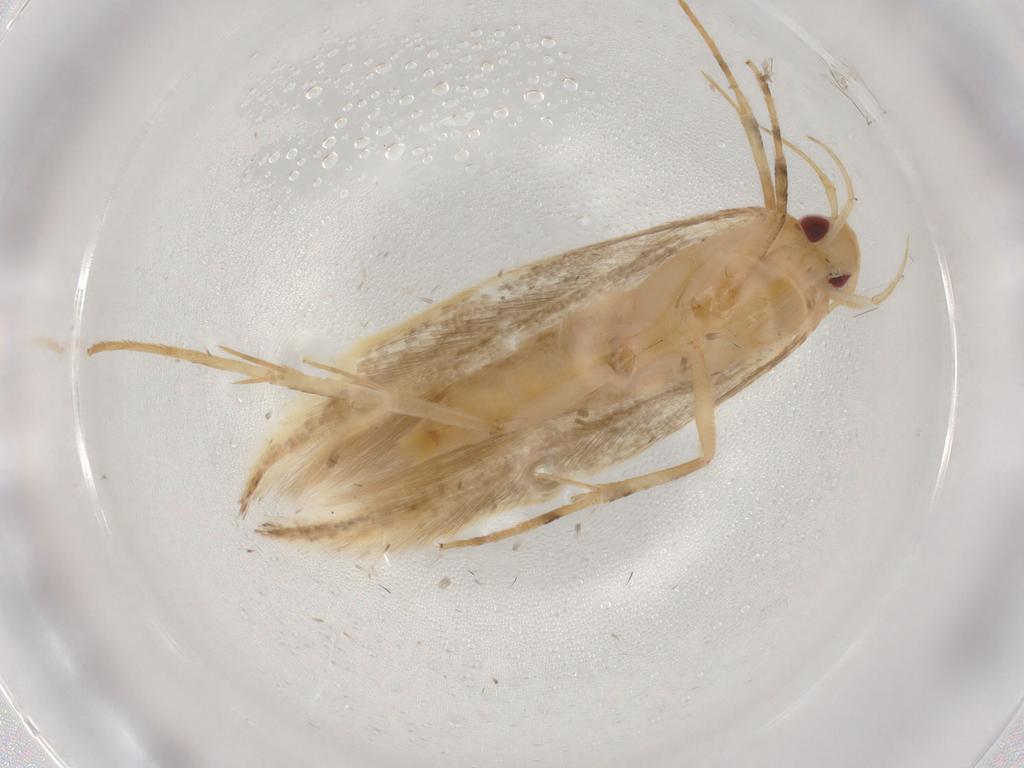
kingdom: Animalia
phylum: Arthropoda
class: Insecta
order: Lepidoptera
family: Cosmopterigidae
